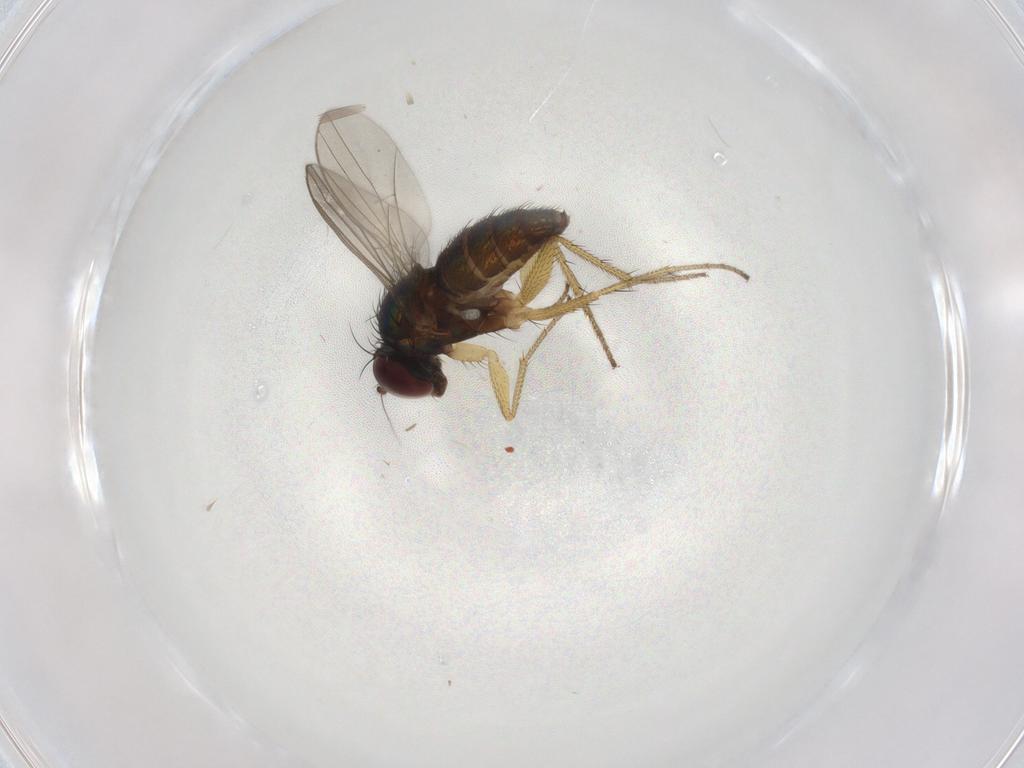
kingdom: Animalia
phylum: Arthropoda
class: Insecta
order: Diptera
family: Dolichopodidae
